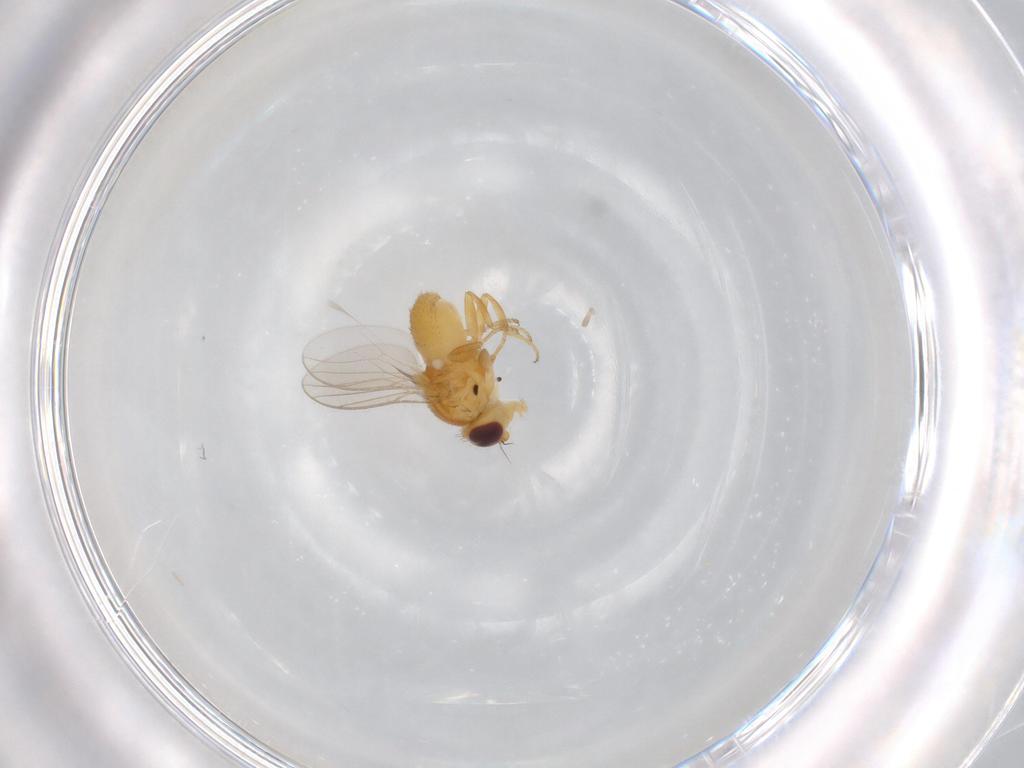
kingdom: Animalia
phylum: Arthropoda
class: Insecta
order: Diptera
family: Chloropidae
